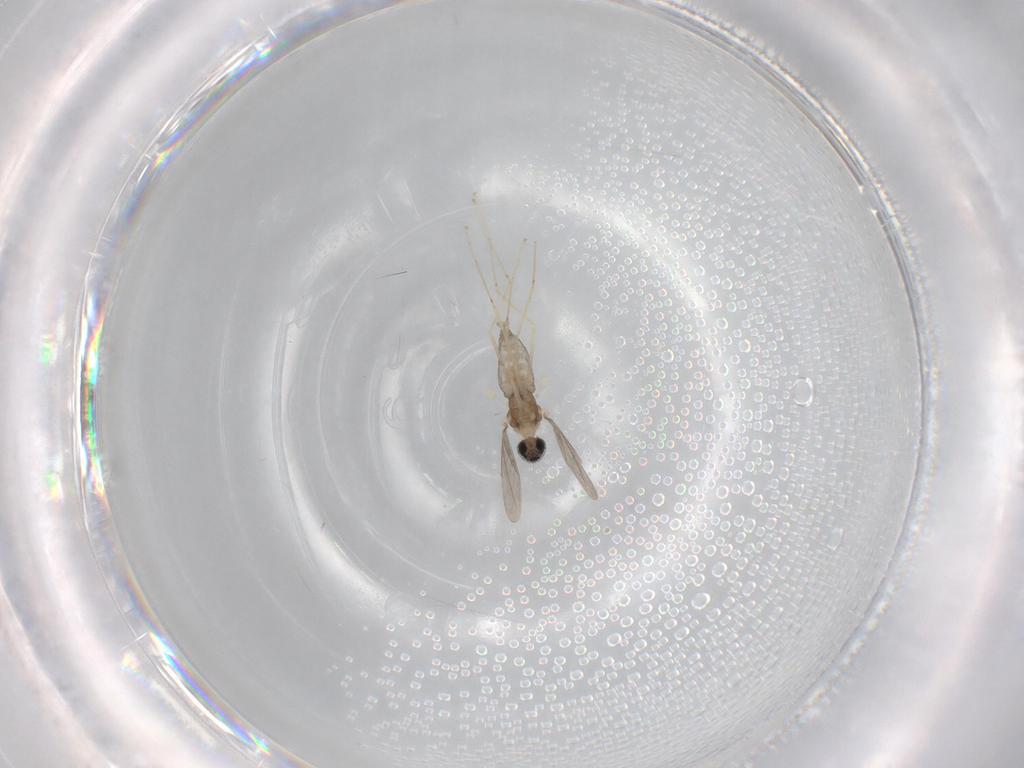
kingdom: Animalia
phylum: Arthropoda
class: Insecta
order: Diptera
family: Cecidomyiidae
